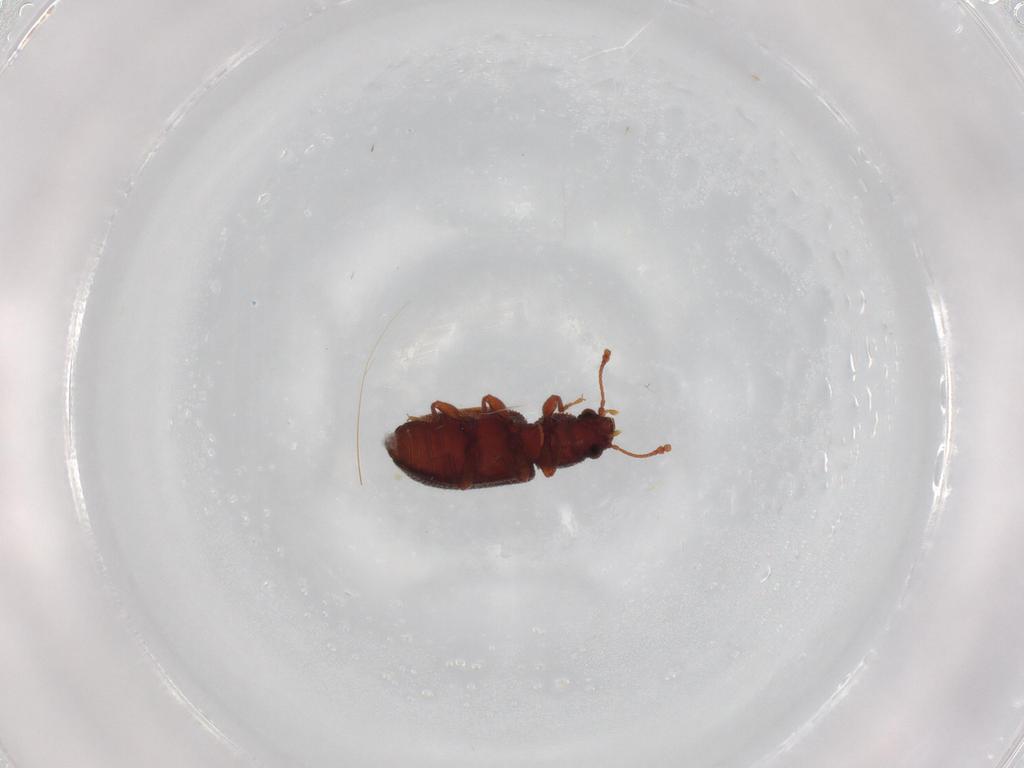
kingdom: Animalia
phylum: Arthropoda
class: Insecta
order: Coleoptera
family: Mycetophagidae
